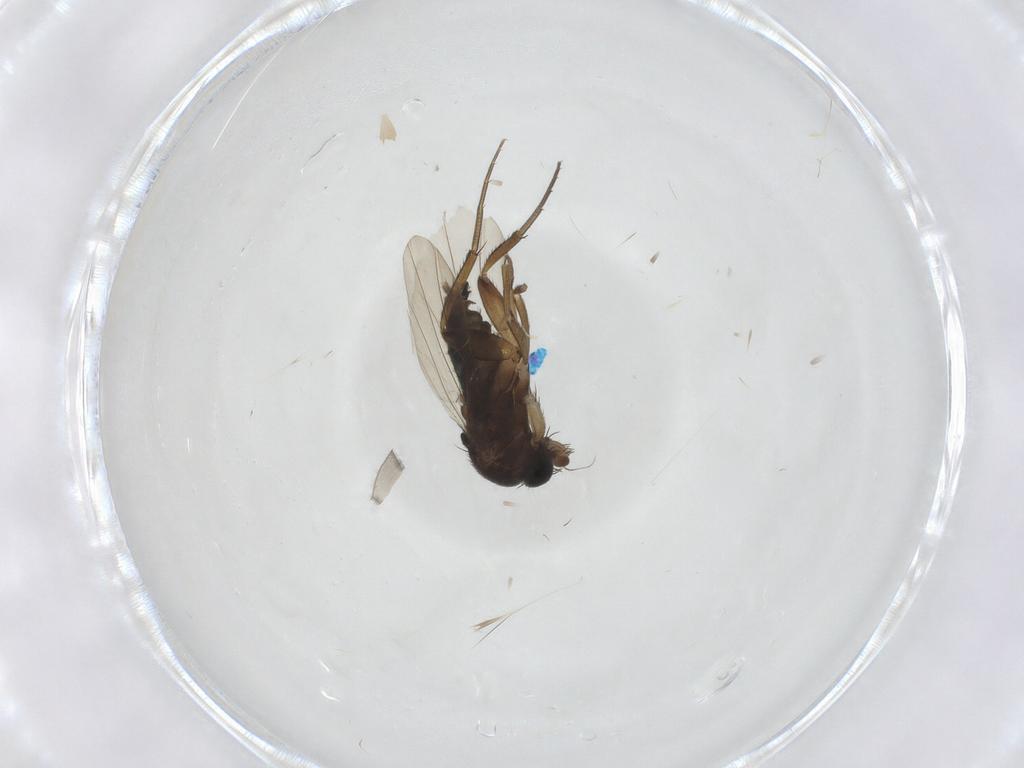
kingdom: Animalia
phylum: Arthropoda
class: Insecta
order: Diptera
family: Phoridae
